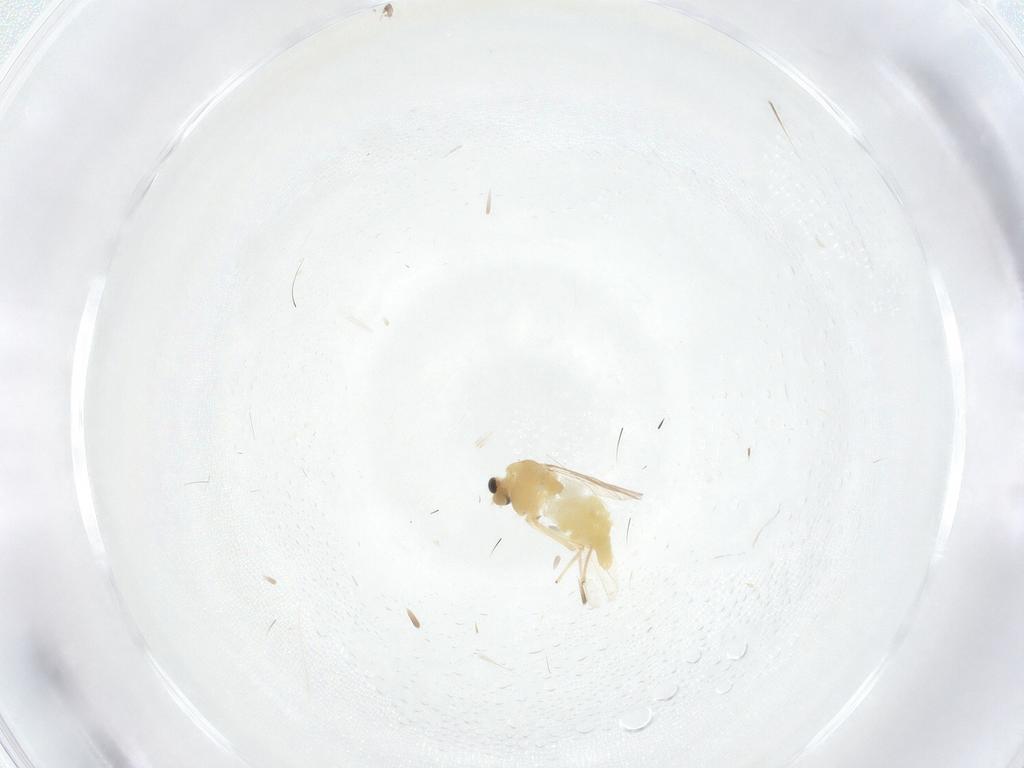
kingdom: Animalia
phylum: Arthropoda
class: Insecta
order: Diptera
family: Chironomidae
